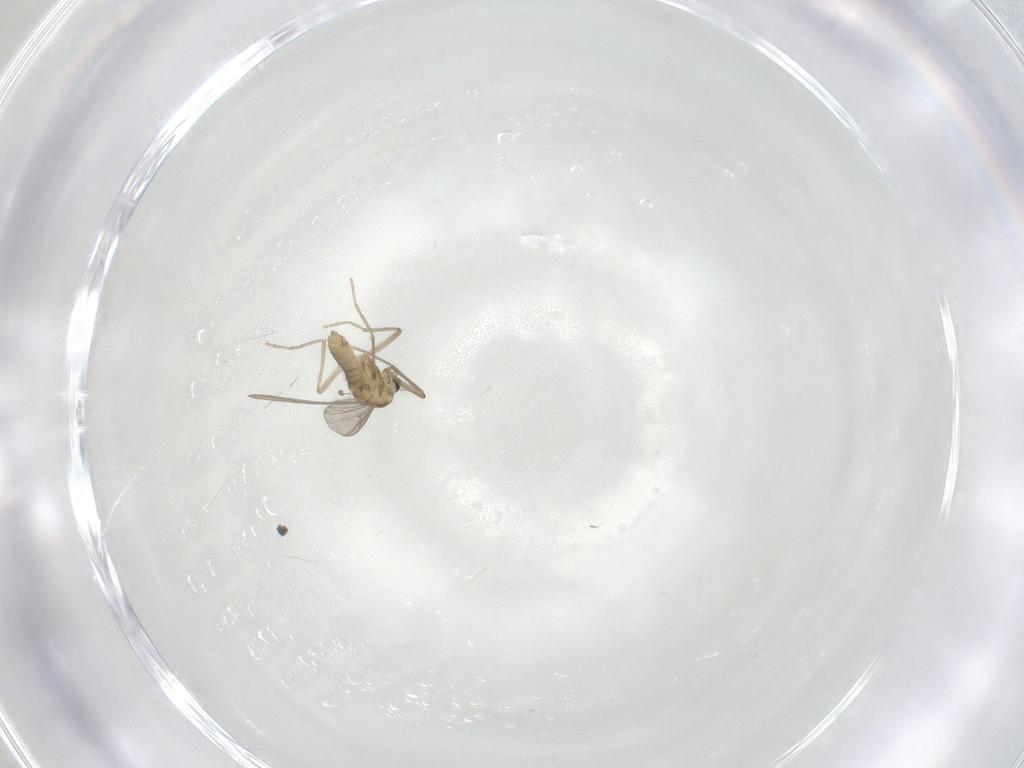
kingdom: Animalia
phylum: Arthropoda
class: Insecta
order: Diptera
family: Chironomidae
